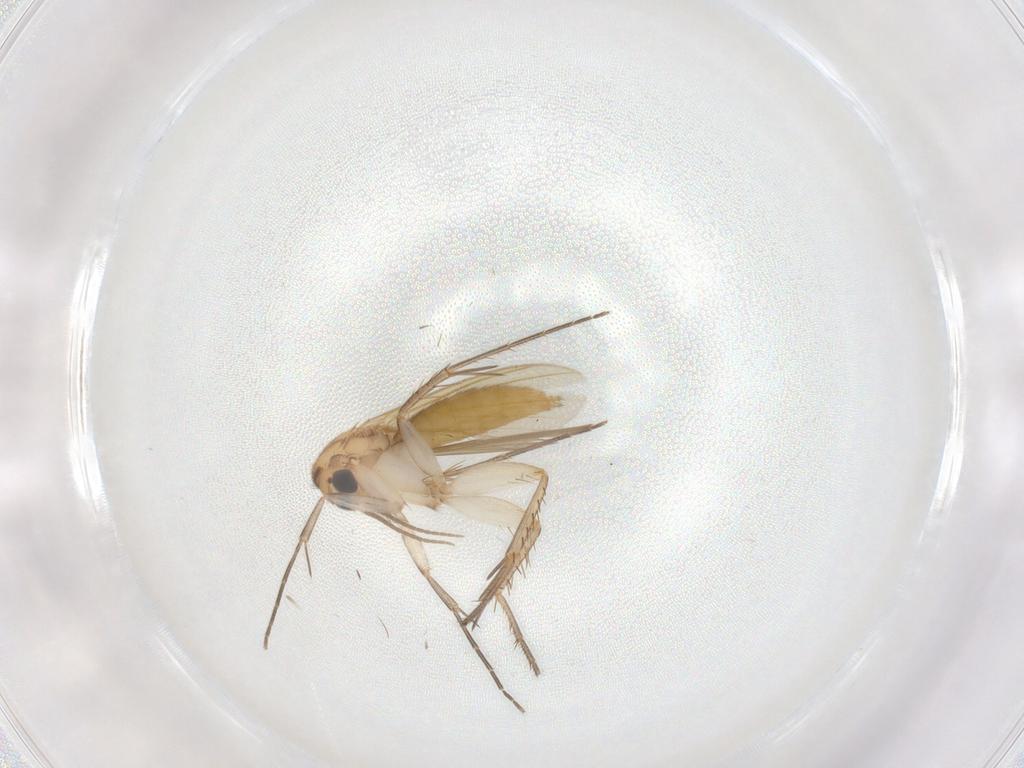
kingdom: Animalia
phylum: Arthropoda
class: Insecta
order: Diptera
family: Mycetophilidae
